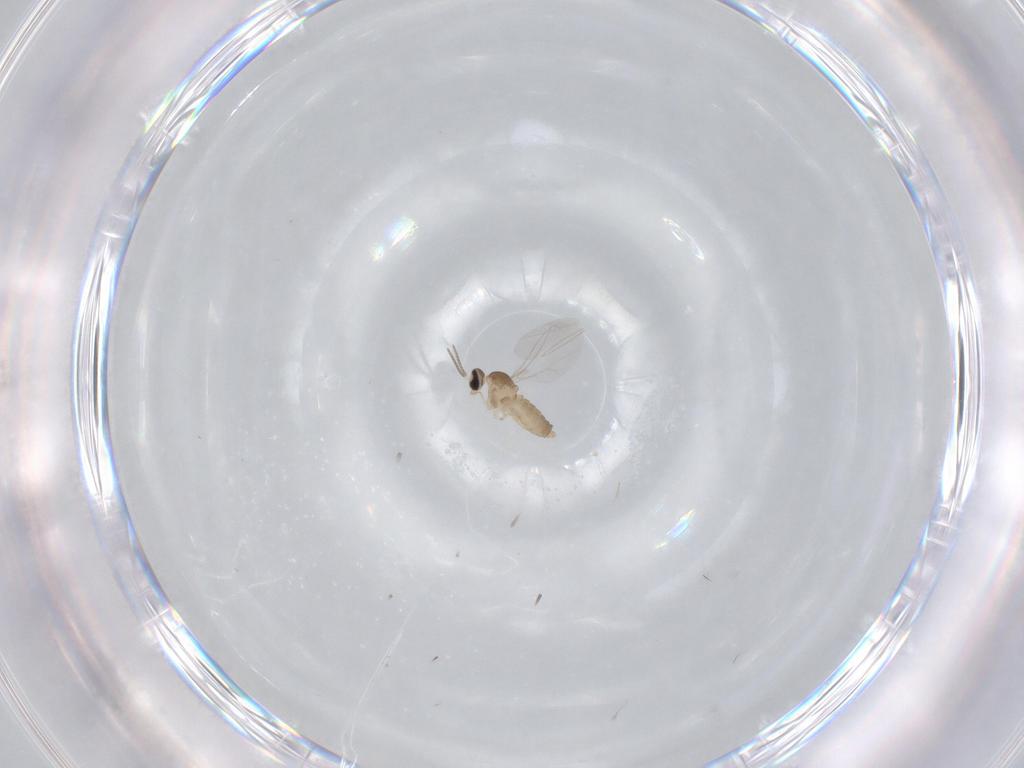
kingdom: Animalia
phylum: Arthropoda
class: Insecta
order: Diptera
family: Cecidomyiidae
